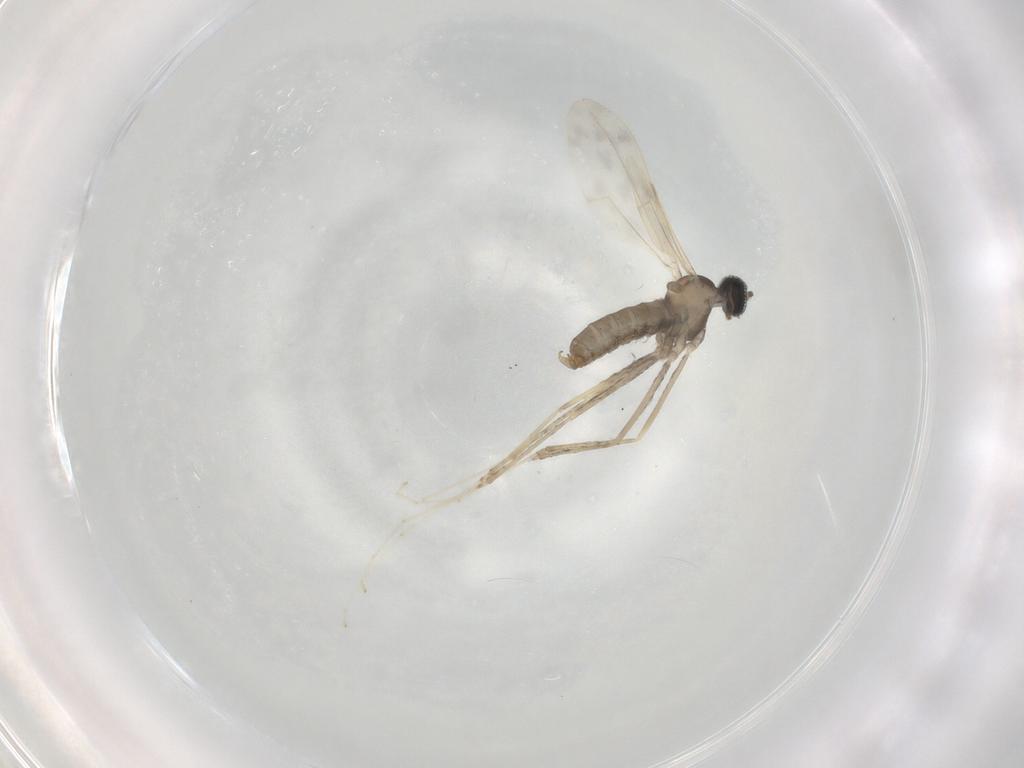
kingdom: Animalia
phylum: Arthropoda
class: Insecta
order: Diptera
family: Cecidomyiidae
